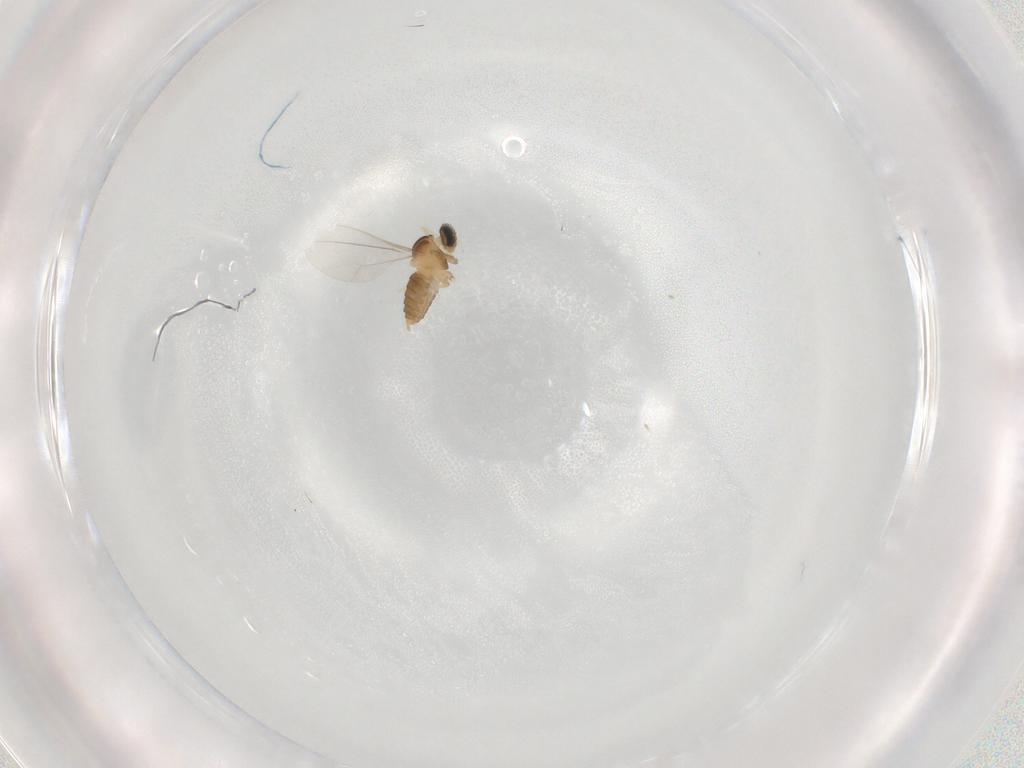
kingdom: Animalia
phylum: Arthropoda
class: Insecta
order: Diptera
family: Cecidomyiidae
